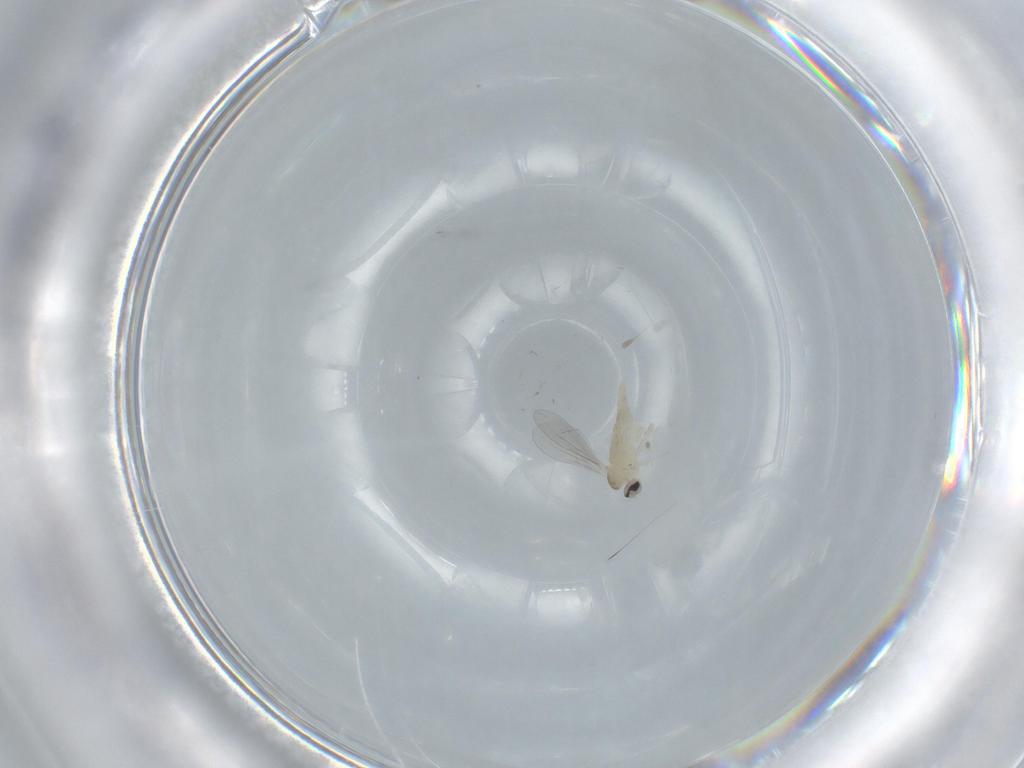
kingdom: Animalia
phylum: Arthropoda
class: Insecta
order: Diptera
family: Cecidomyiidae
